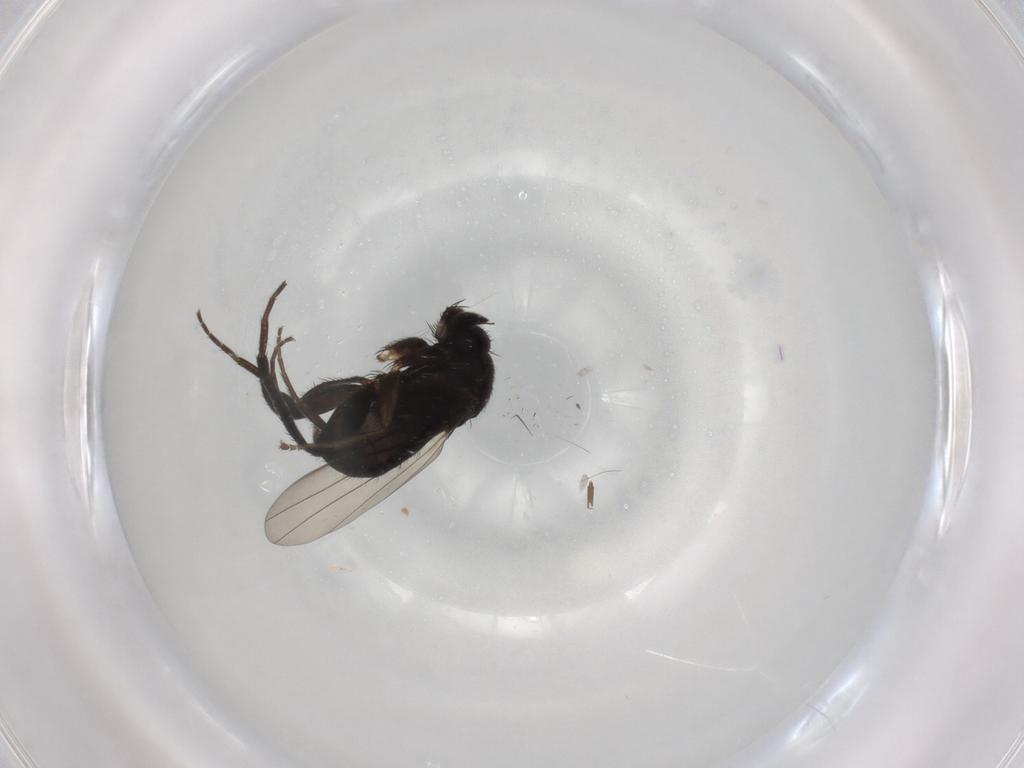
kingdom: Animalia
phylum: Arthropoda
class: Insecta
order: Diptera
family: Phoridae
